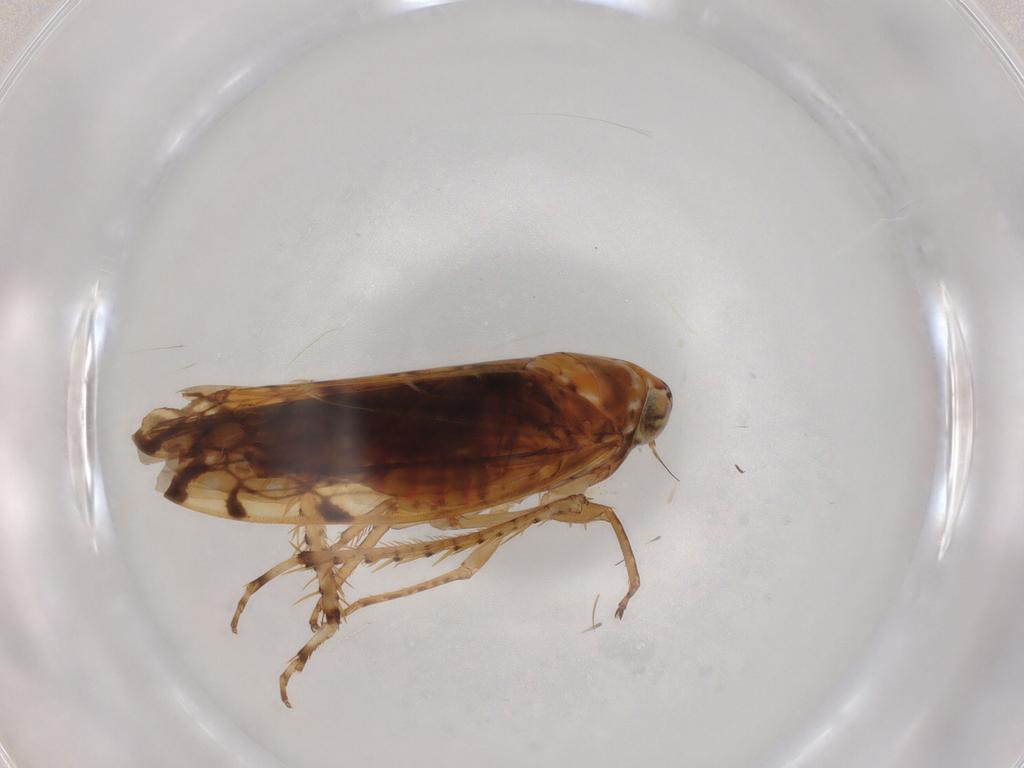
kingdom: Animalia
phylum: Arthropoda
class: Insecta
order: Hemiptera
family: Cicadellidae
